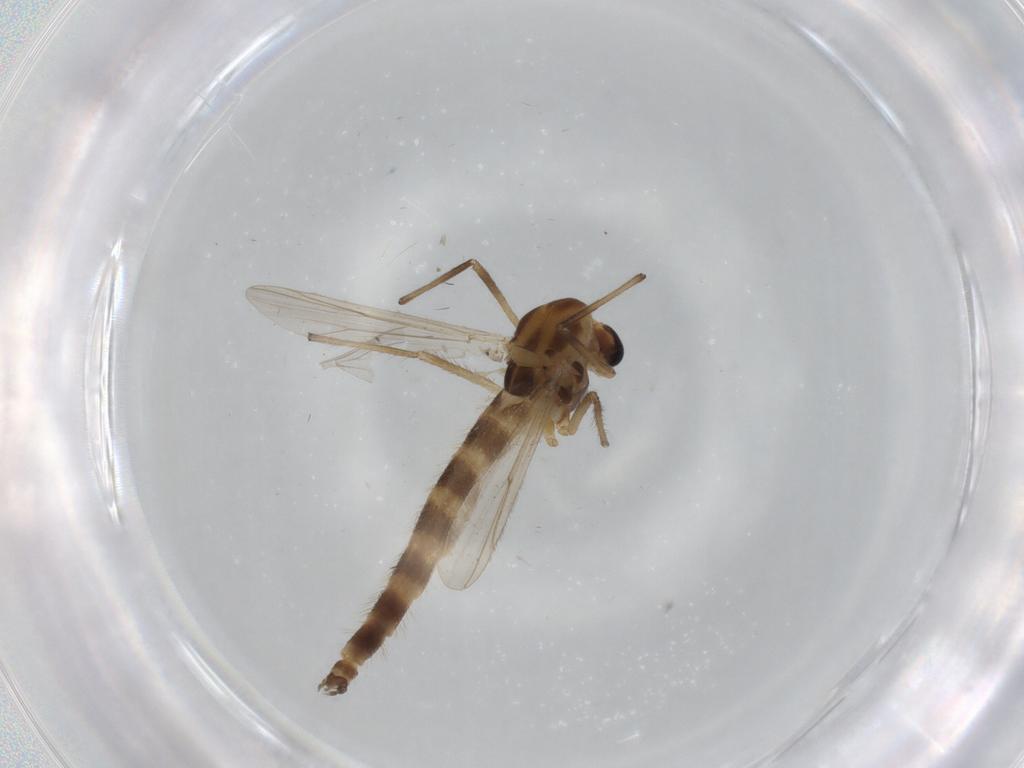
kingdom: Animalia
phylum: Arthropoda
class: Insecta
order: Diptera
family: Chironomidae
